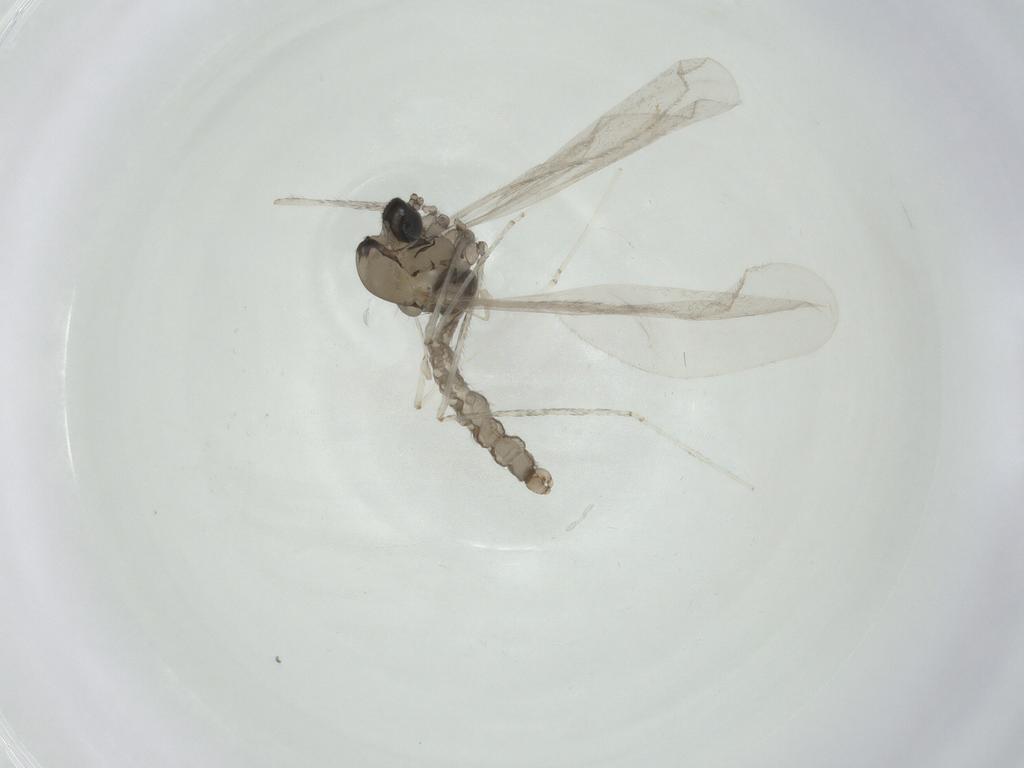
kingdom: Animalia
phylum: Arthropoda
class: Insecta
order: Diptera
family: Cecidomyiidae
